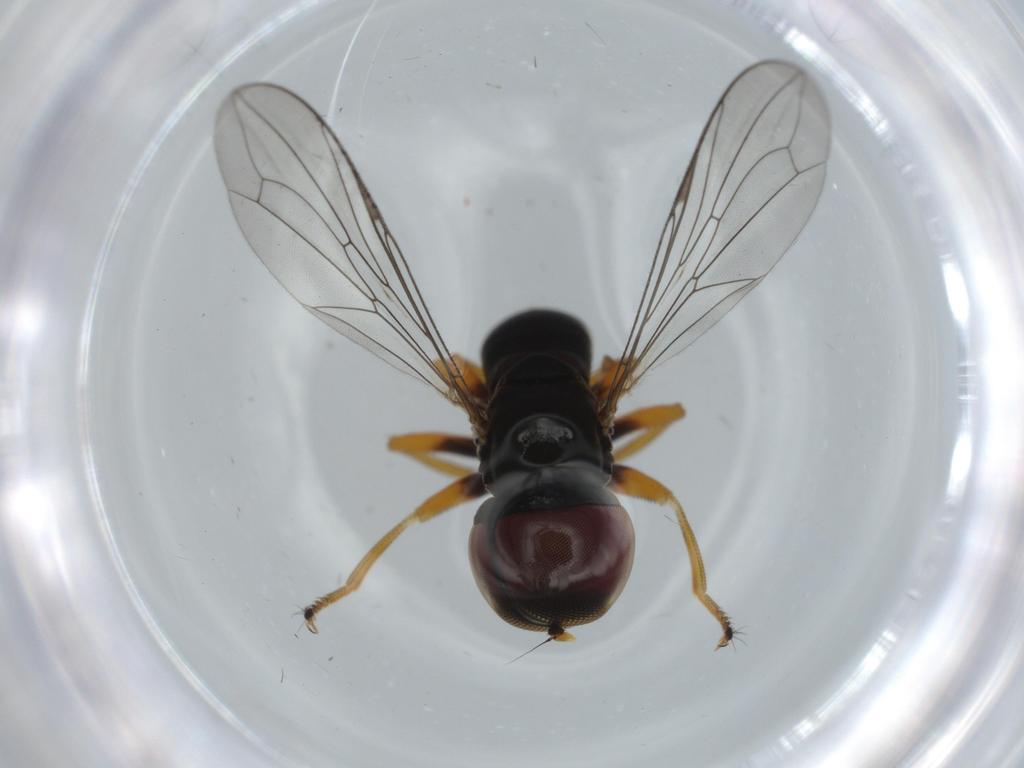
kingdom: Animalia
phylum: Arthropoda
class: Insecta
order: Diptera
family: Pipunculidae
